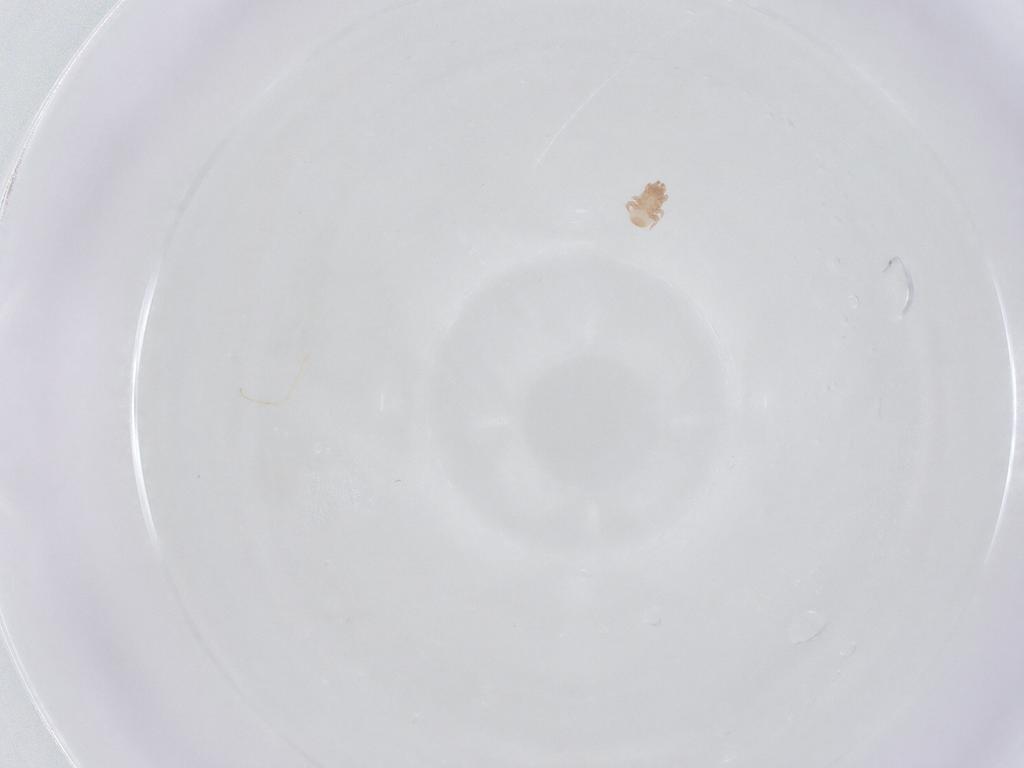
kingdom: Animalia
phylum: Arthropoda
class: Arachnida
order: Mesostigmata
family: Digamasellidae
